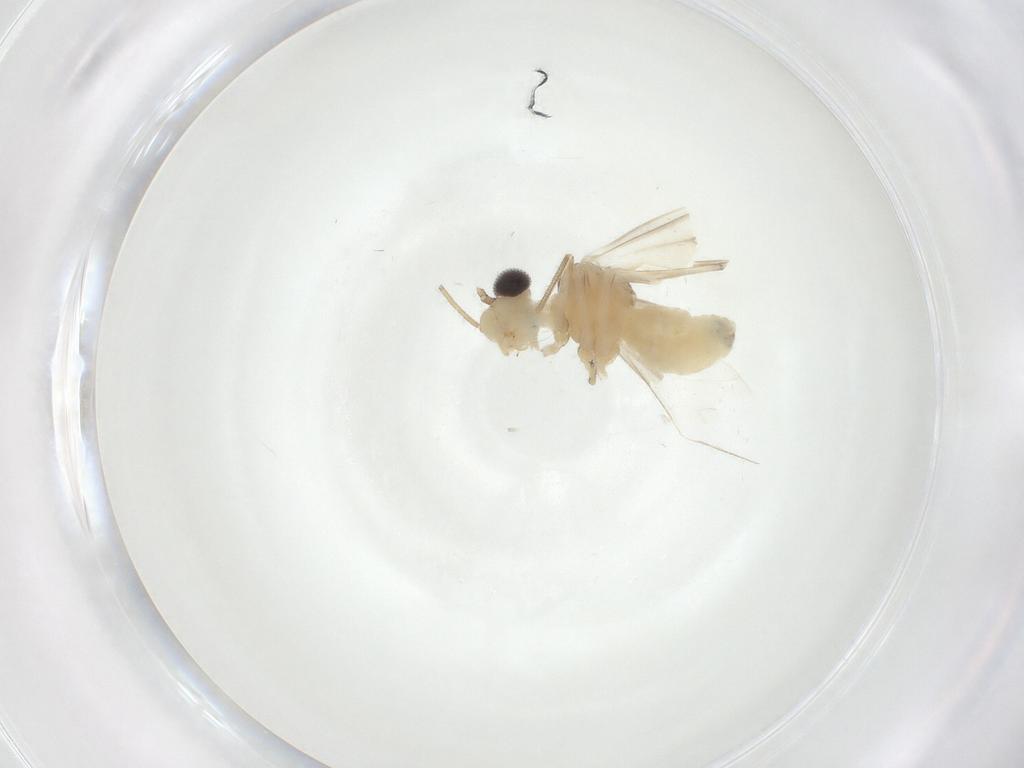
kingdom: Animalia
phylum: Arthropoda
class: Insecta
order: Psocodea
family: Caeciliusidae
